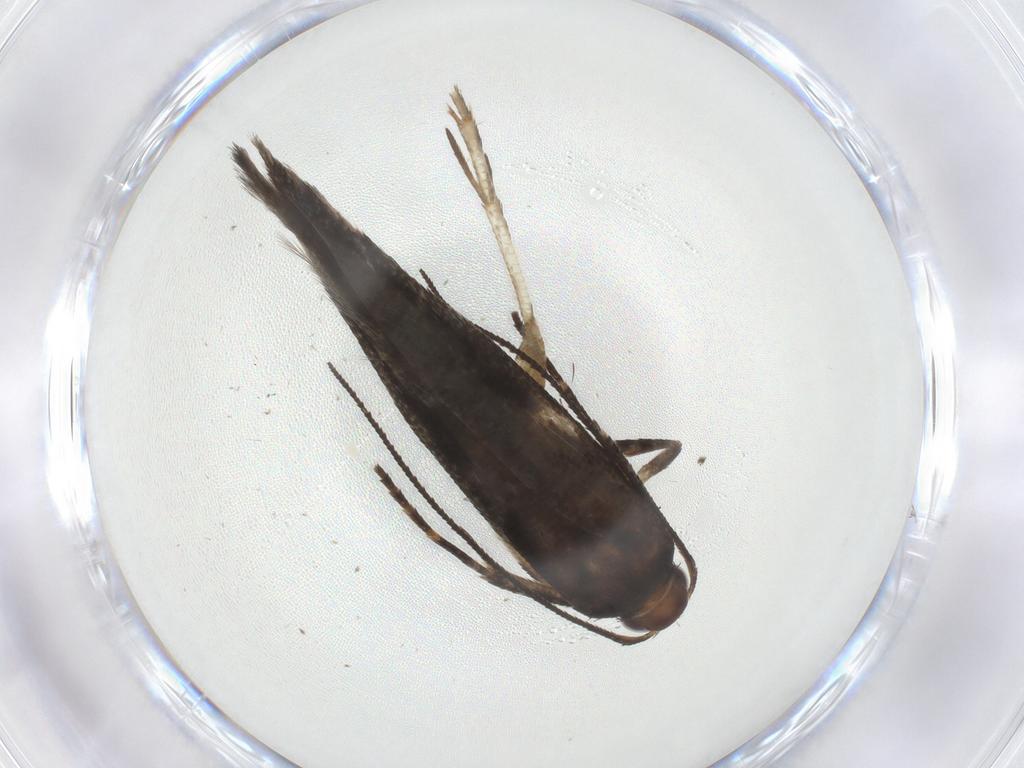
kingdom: Animalia
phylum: Arthropoda
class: Insecta
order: Lepidoptera
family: Gelechiidae
